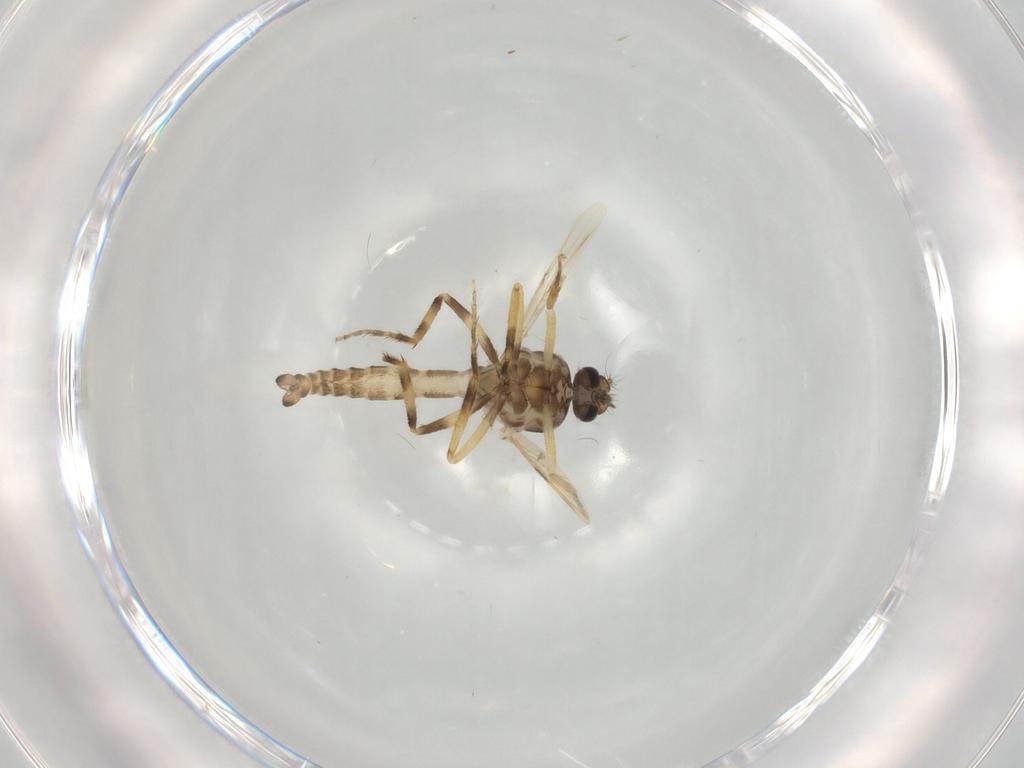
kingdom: Animalia
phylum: Arthropoda
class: Insecta
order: Diptera
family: Ceratopogonidae
